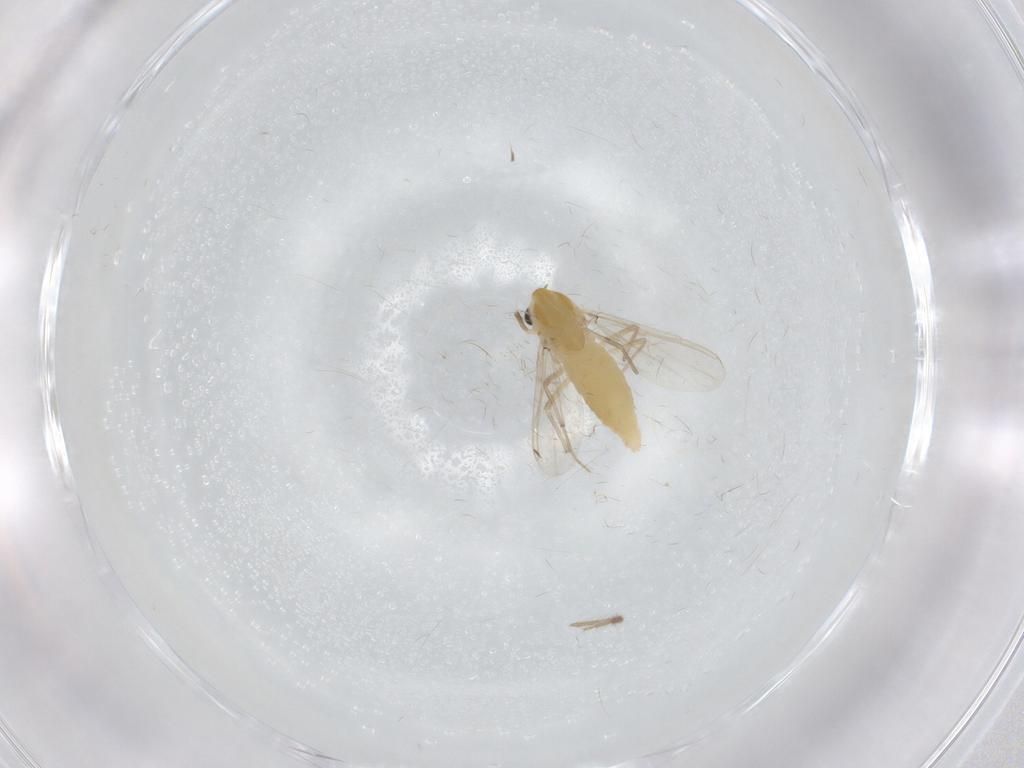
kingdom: Animalia
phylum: Arthropoda
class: Insecta
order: Diptera
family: Chironomidae
